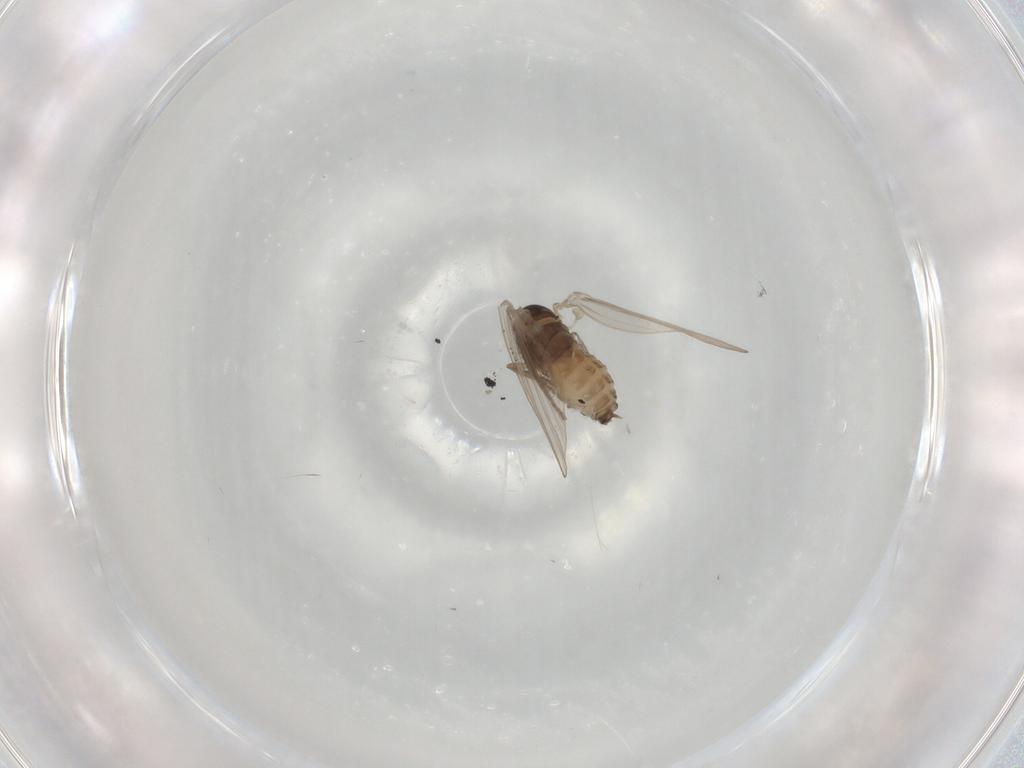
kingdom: Animalia
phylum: Arthropoda
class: Insecta
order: Diptera
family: Psychodidae
